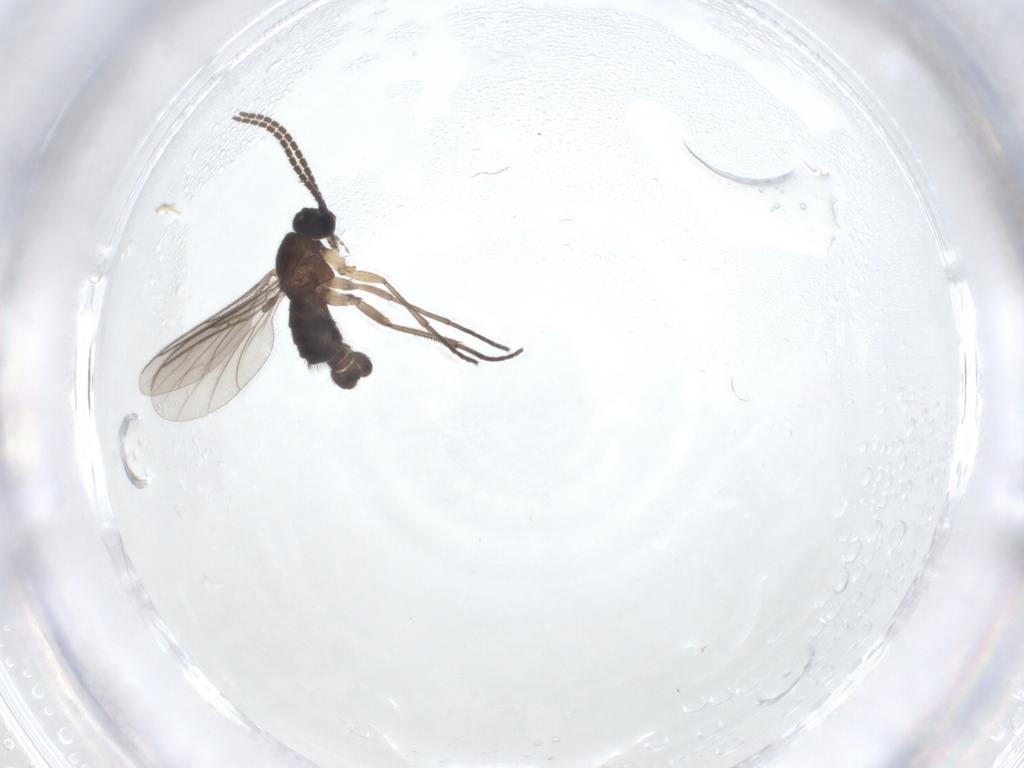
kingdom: Animalia
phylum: Arthropoda
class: Insecta
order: Diptera
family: Sciaridae
